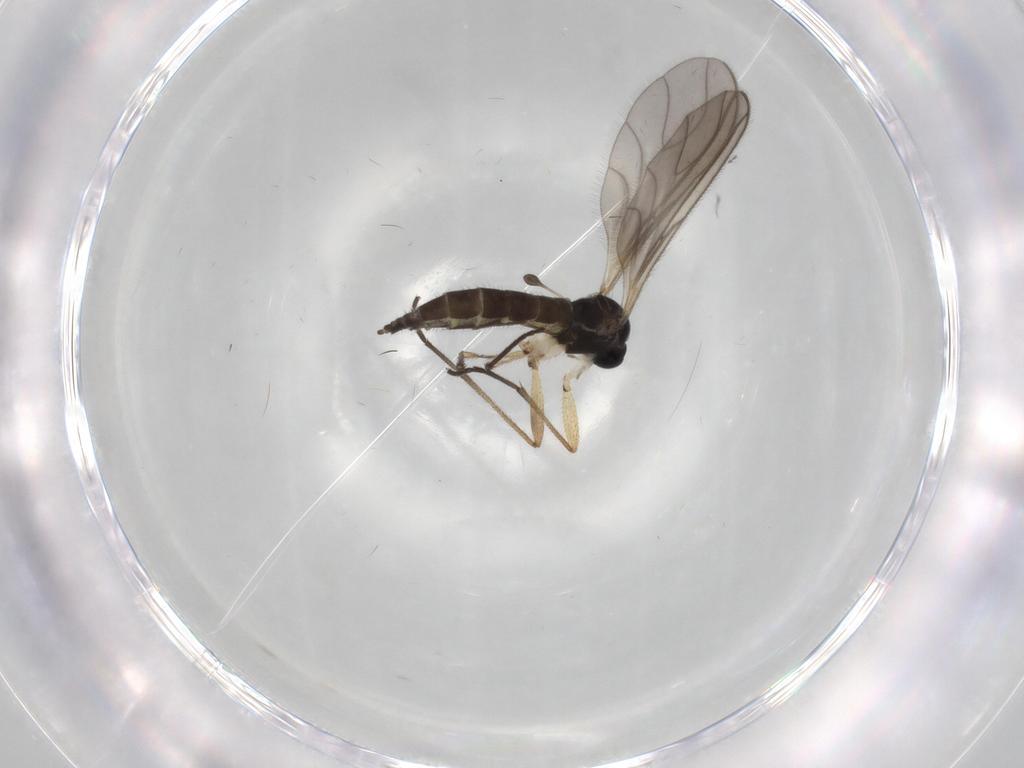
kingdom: Animalia
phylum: Arthropoda
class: Insecta
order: Diptera
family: Sciaridae
